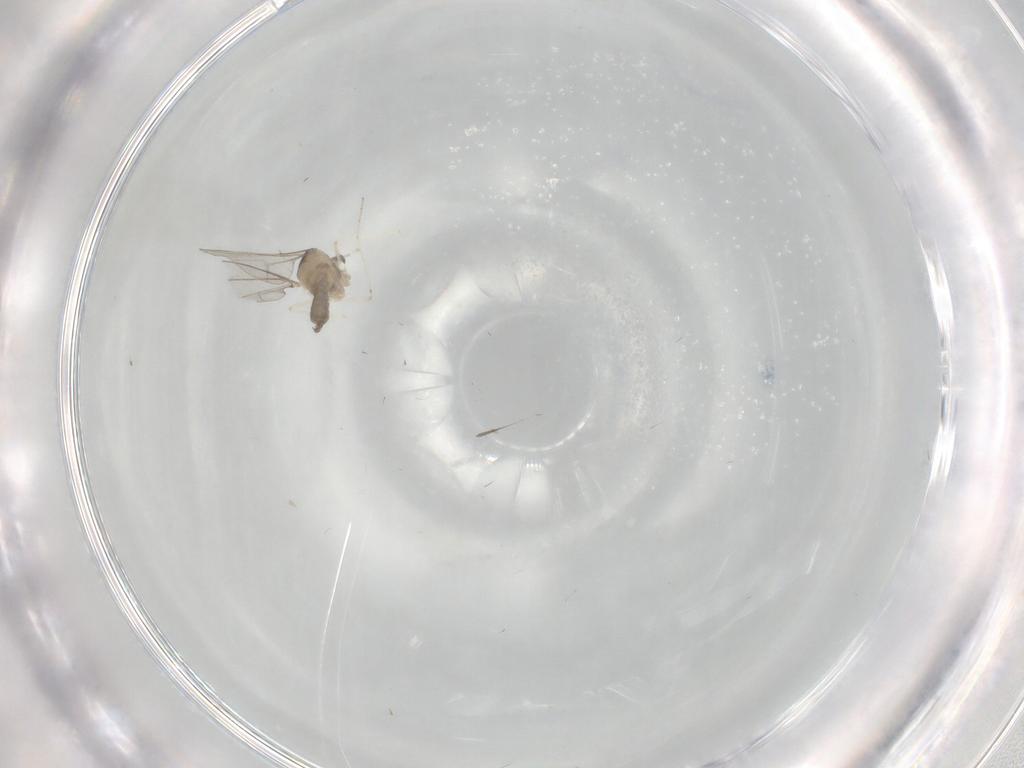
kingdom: Animalia
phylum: Arthropoda
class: Insecta
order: Diptera
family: Cecidomyiidae
